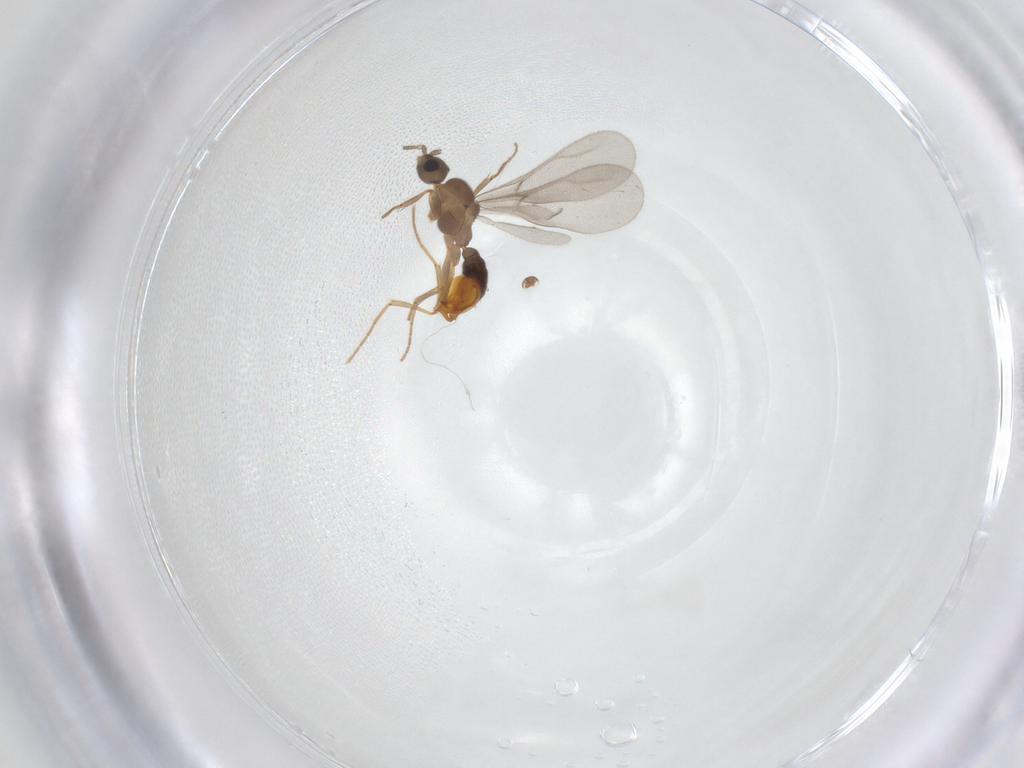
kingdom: Animalia
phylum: Arthropoda
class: Insecta
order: Hymenoptera
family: Formicidae
